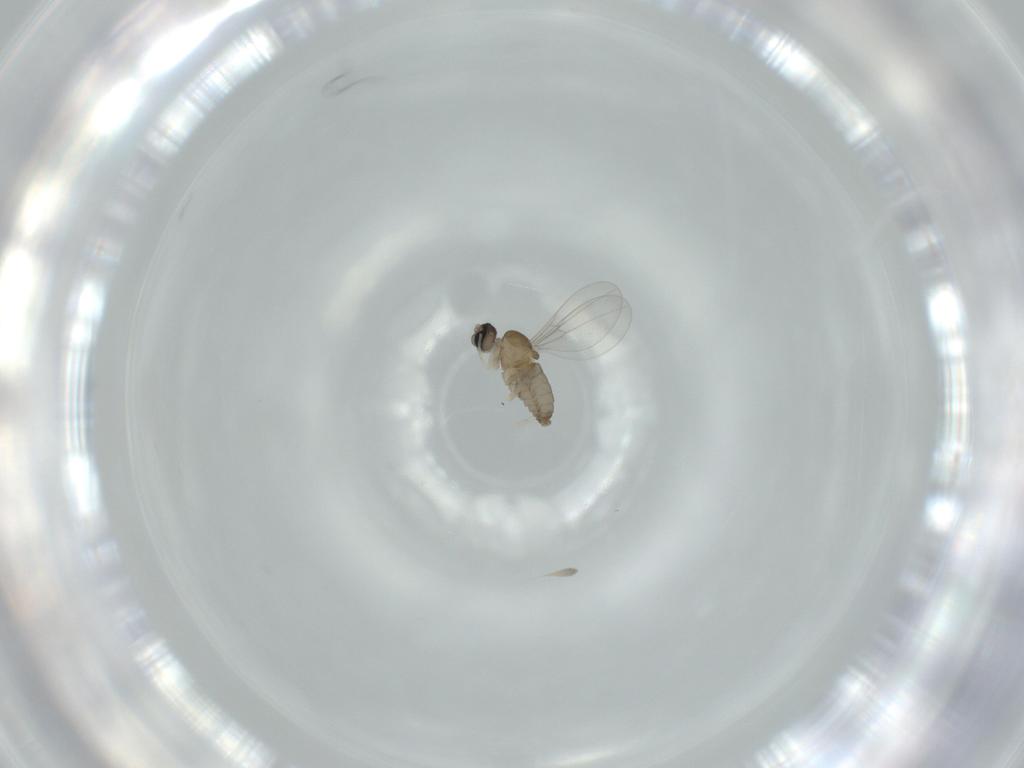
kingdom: Animalia
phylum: Arthropoda
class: Insecta
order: Diptera
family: Cecidomyiidae
